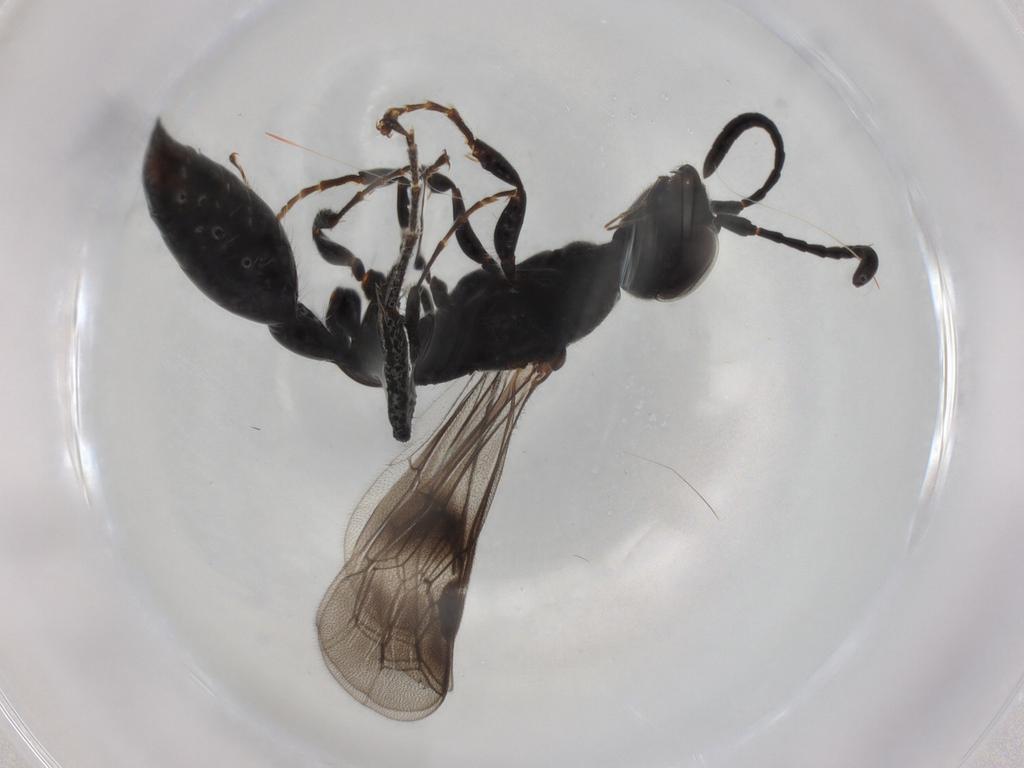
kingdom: Animalia
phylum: Arthropoda
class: Insecta
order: Hymenoptera
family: Thynnidae
